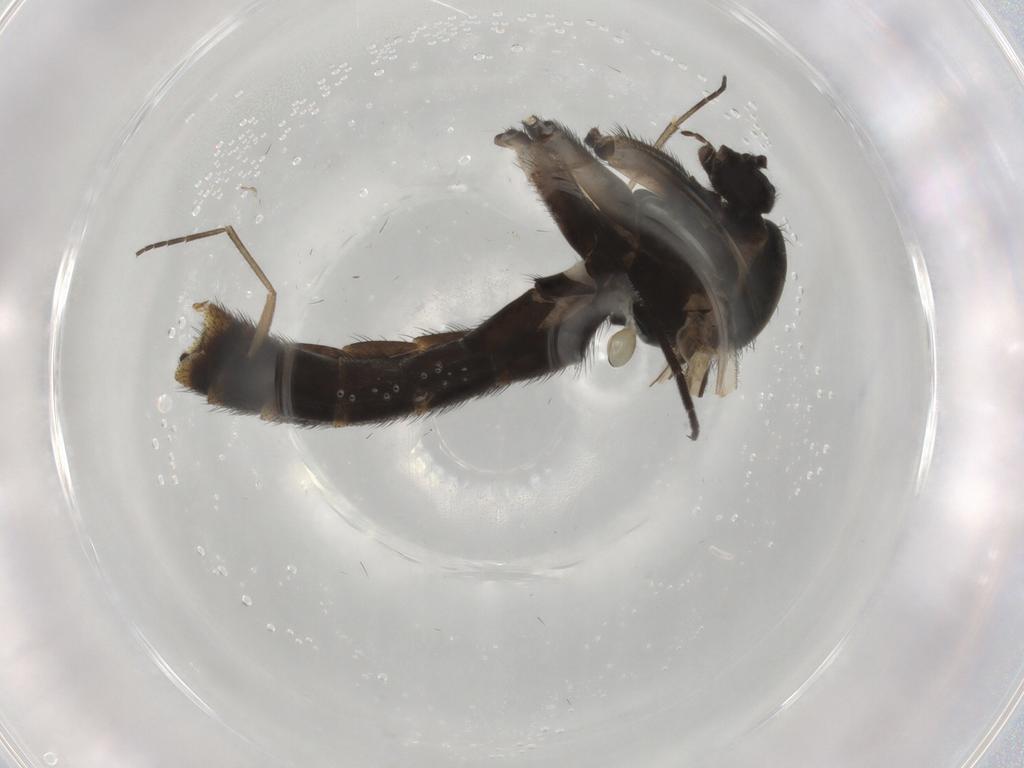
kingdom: Animalia
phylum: Arthropoda
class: Insecta
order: Diptera
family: Keroplatidae
